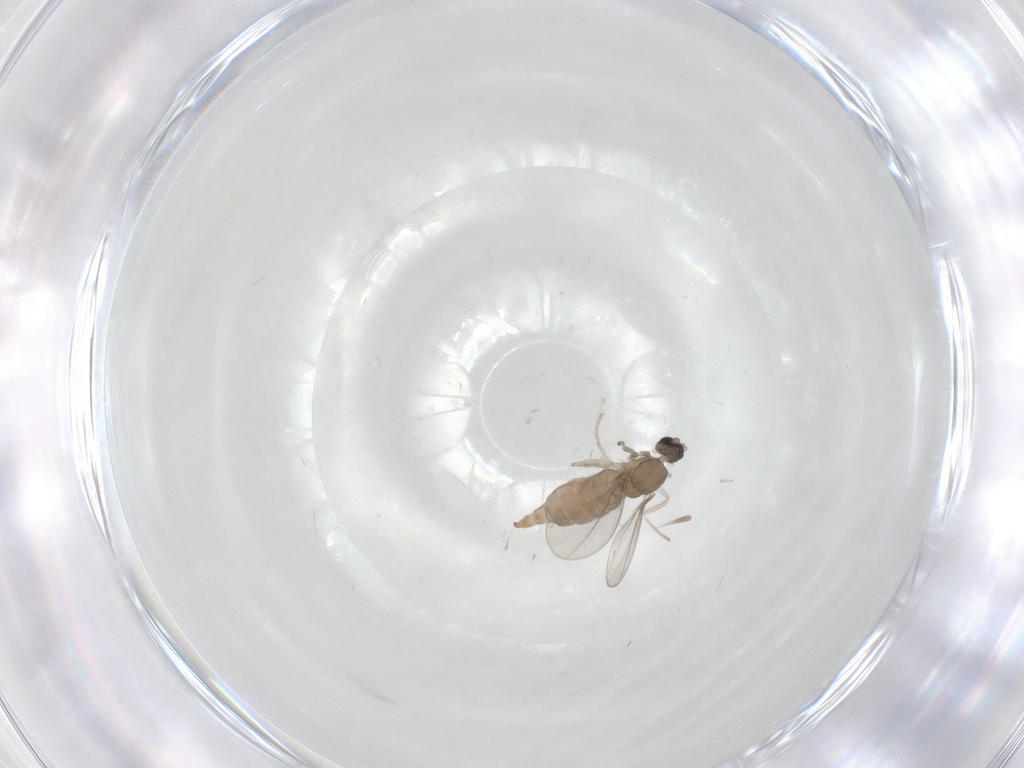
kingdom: Animalia
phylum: Arthropoda
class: Insecta
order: Diptera
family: Cecidomyiidae
